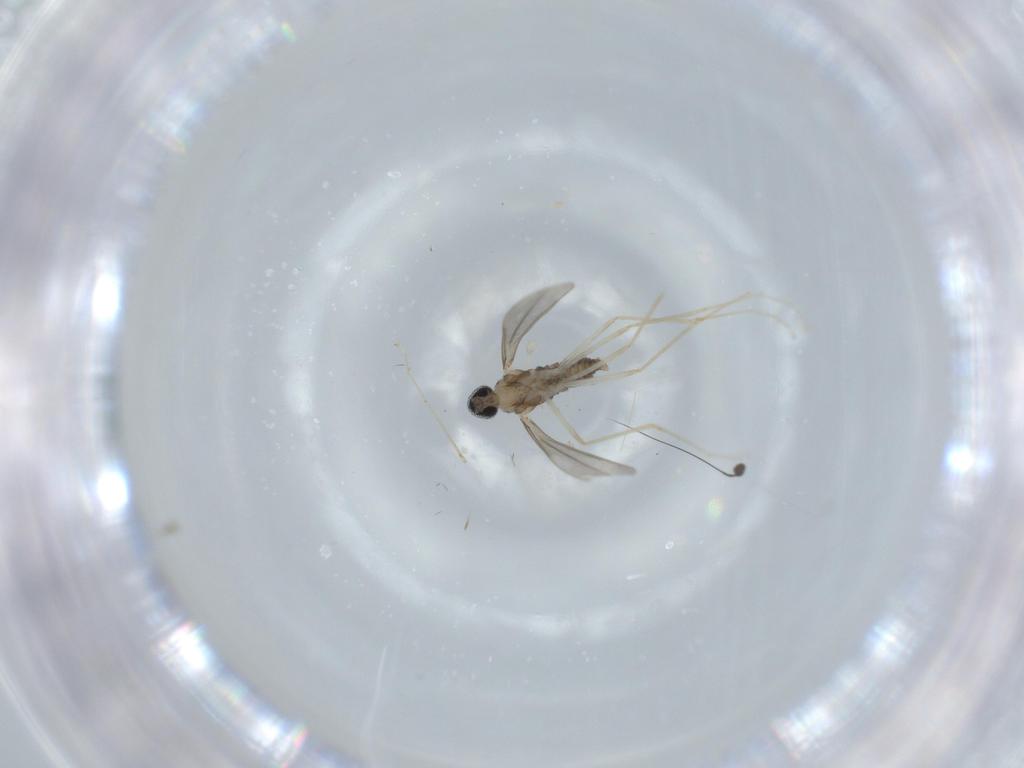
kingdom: Animalia
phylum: Arthropoda
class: Insecta
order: Diptera
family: Dolichopodidae
